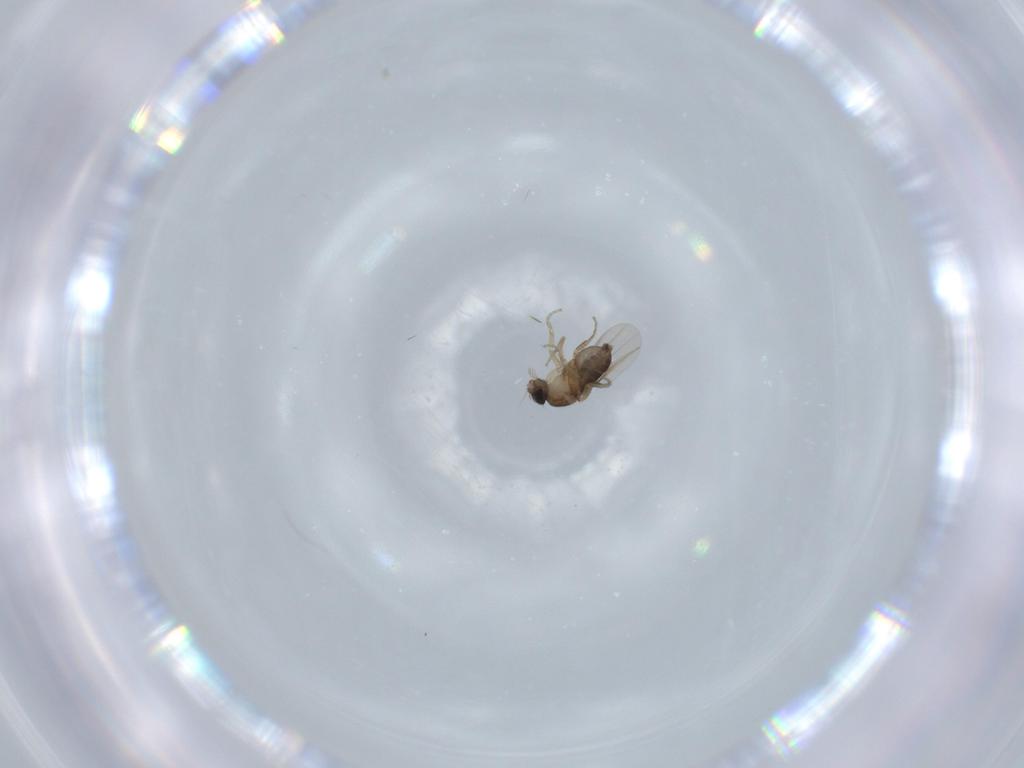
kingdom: Animalia
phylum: Arthropoda
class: Insecta
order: Diptera
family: Phoridae
